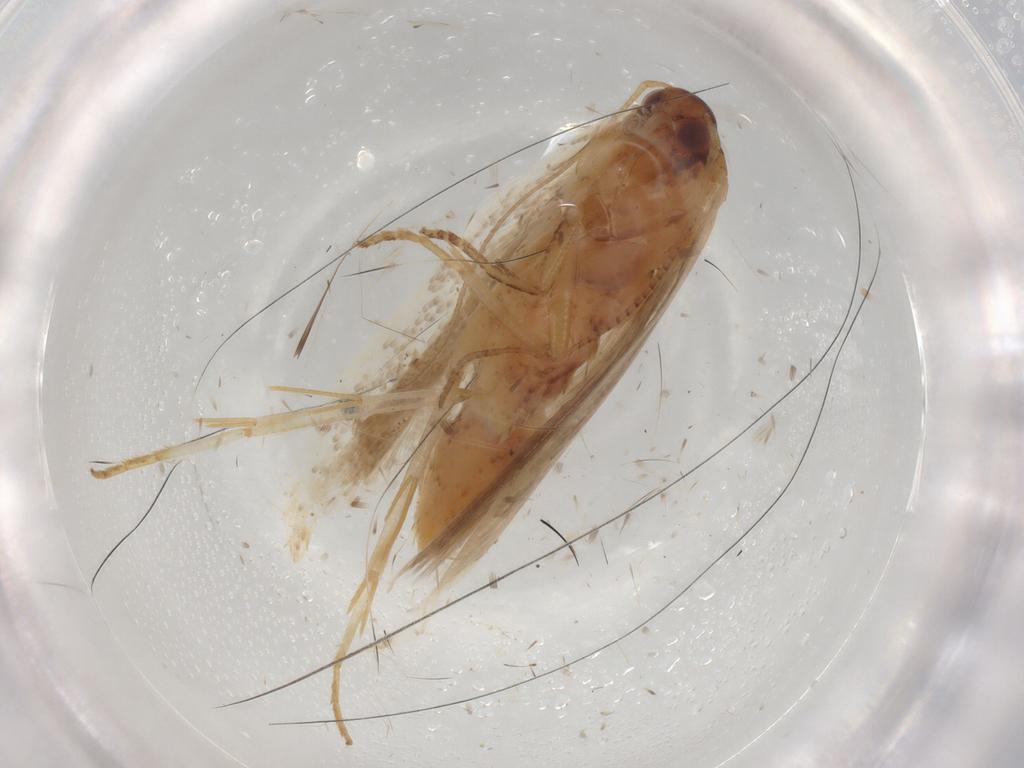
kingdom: Animalia
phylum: Arthropoda
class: Insecta
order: Lepidoptera
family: Gelechiidae
